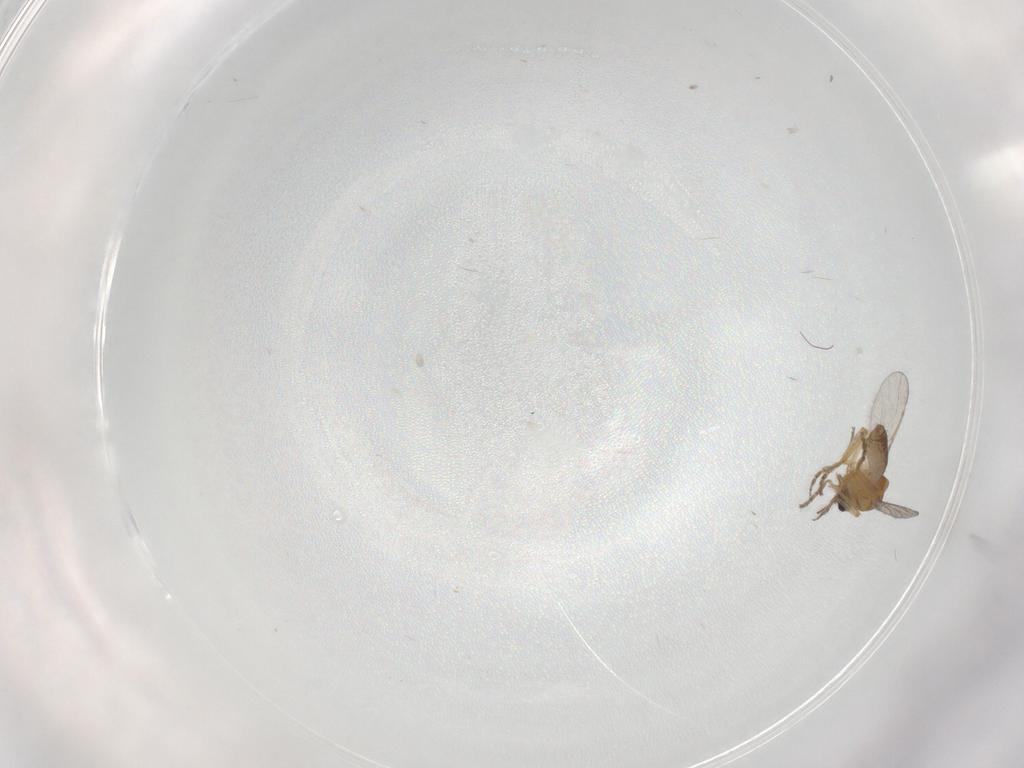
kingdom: Animalia
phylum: Arthropoda
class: Insecta
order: Diptera
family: Ceratopogonidae
